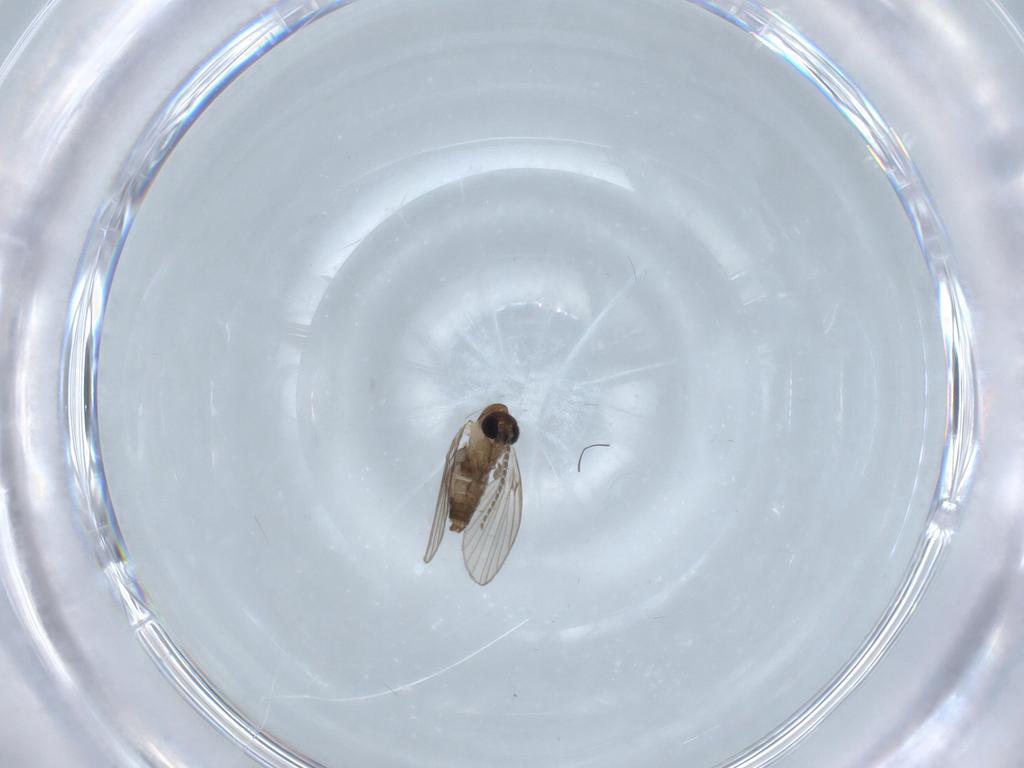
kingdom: Animalia
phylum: Arthropoda
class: Insecta
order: Diptera
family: Psychodidae
